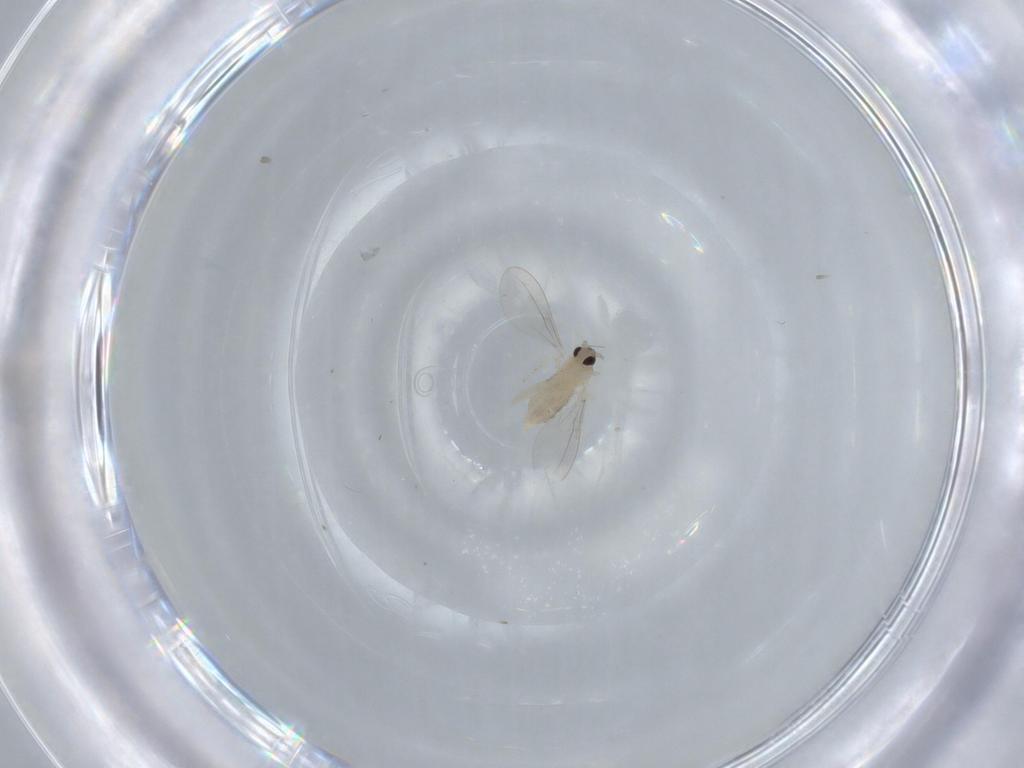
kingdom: Animalia
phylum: Arthropoda
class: Insecta
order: Diptera
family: Cecidomyiidae
